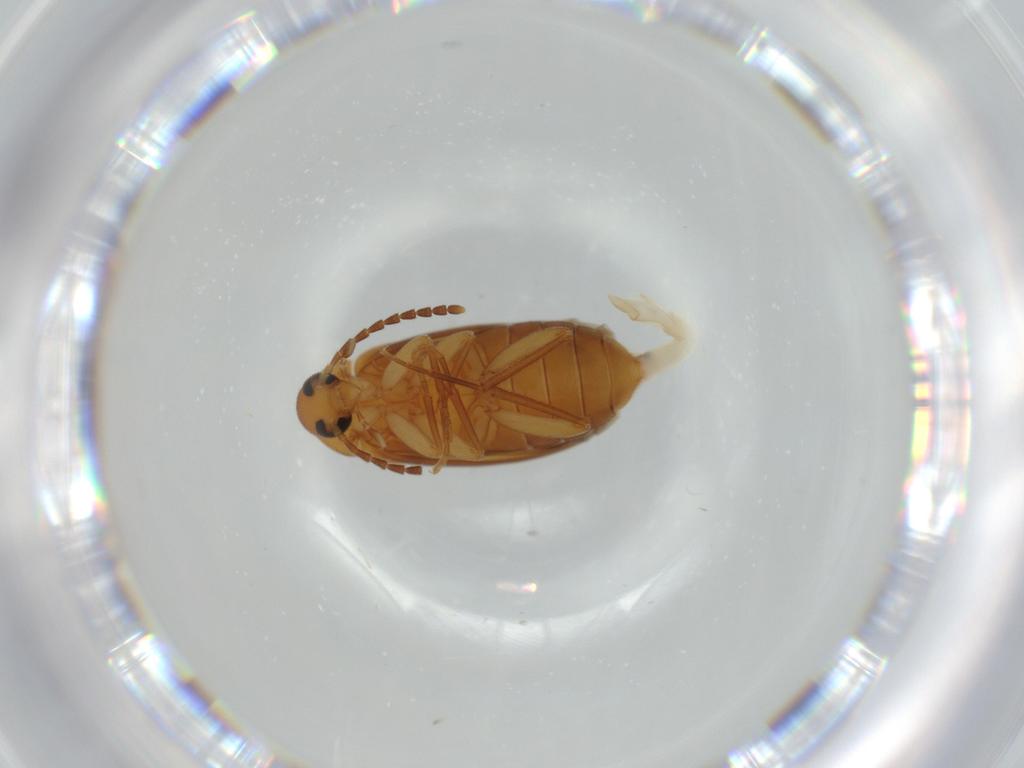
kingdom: Animalia
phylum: Arthropoda
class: Insecta
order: Coleoptera
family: Scraptiidae
